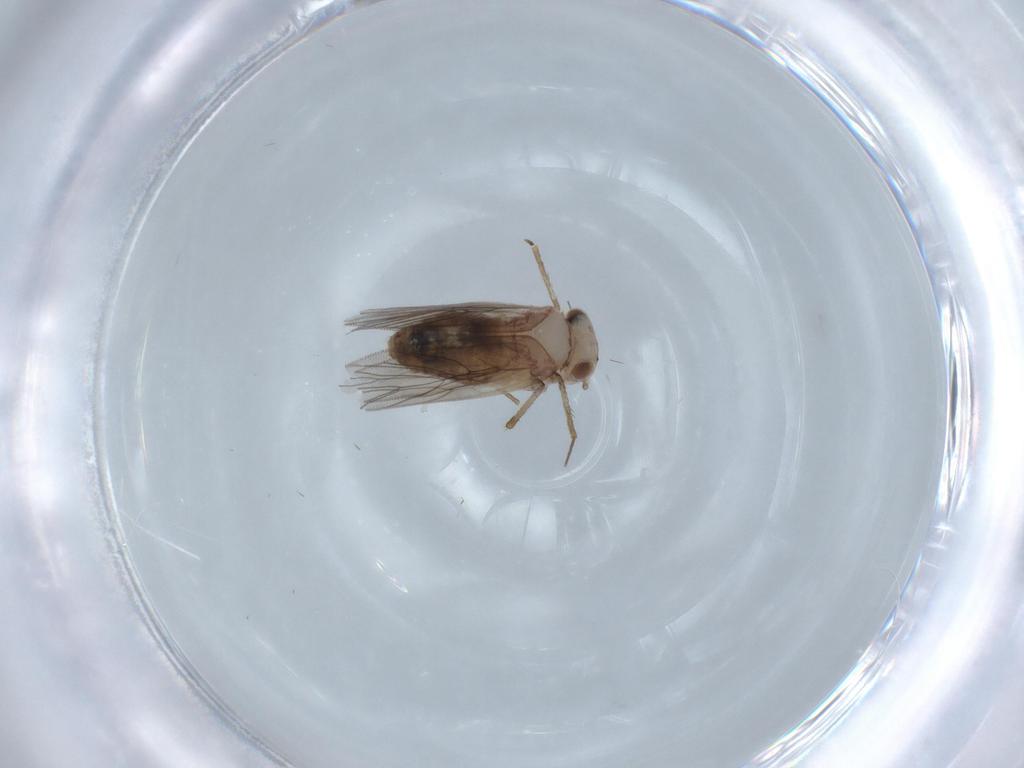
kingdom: Animalia
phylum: Arthropoda
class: Insecta
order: Psocodea
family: Lepidopsocidae
